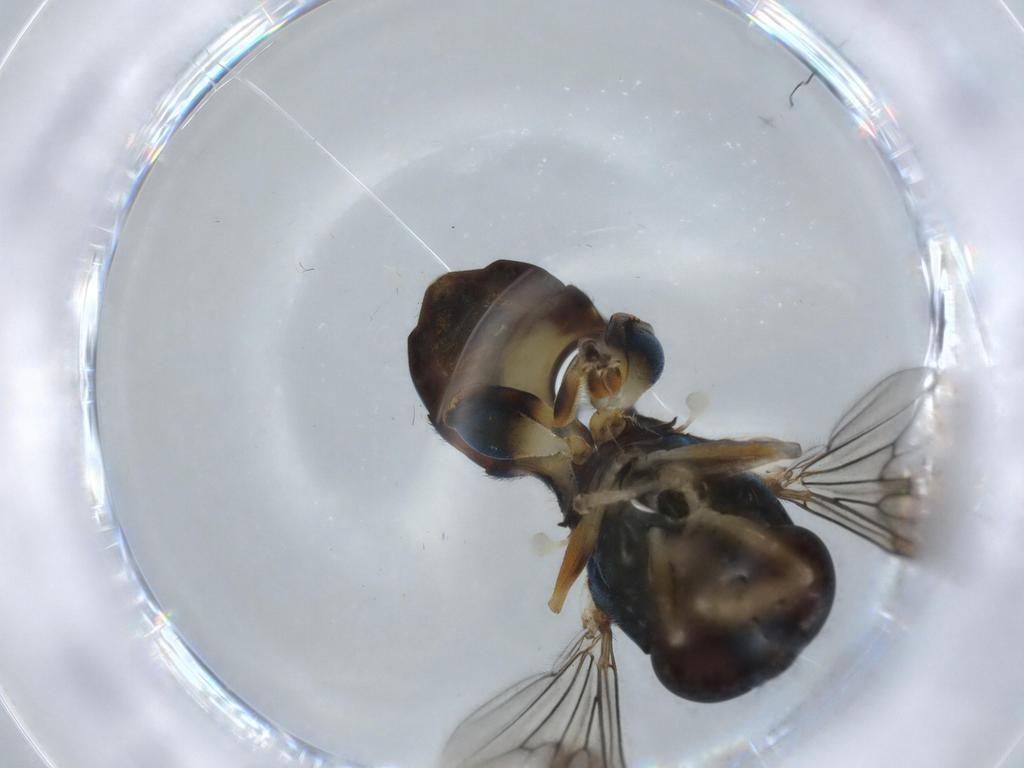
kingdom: Animalia
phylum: Arthropoda
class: Insecta
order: Diptera
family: Syrphidae
